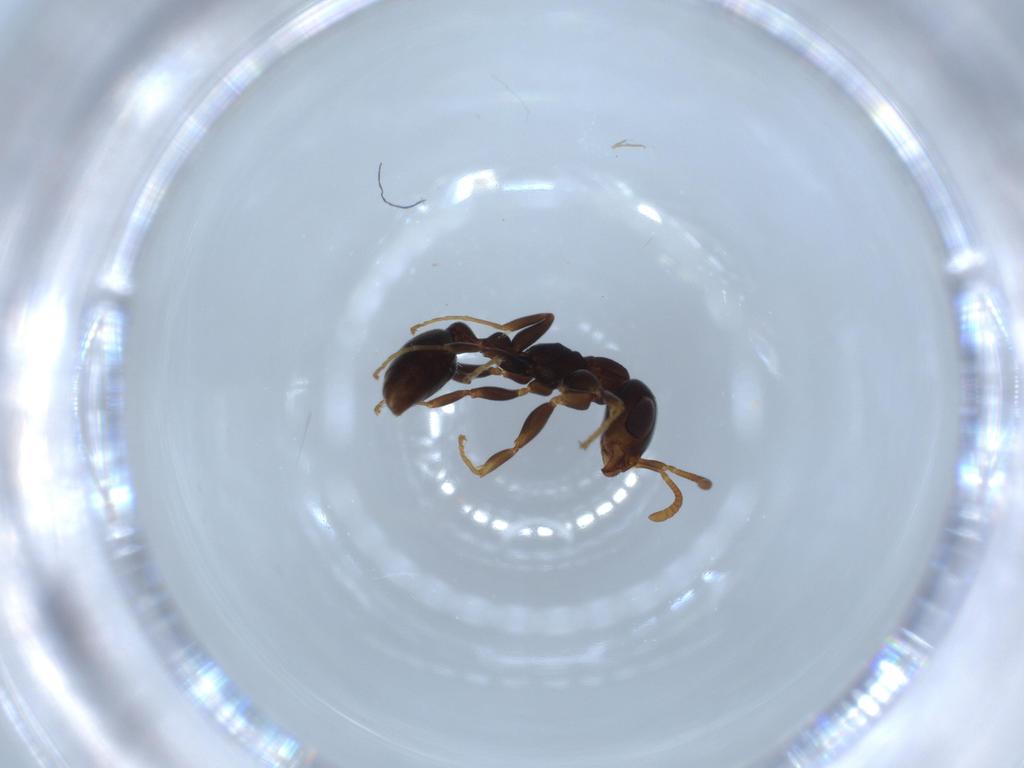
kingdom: Animalia
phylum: Arthropoda
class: Insecta
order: Hymenoptera
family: Formicidae
